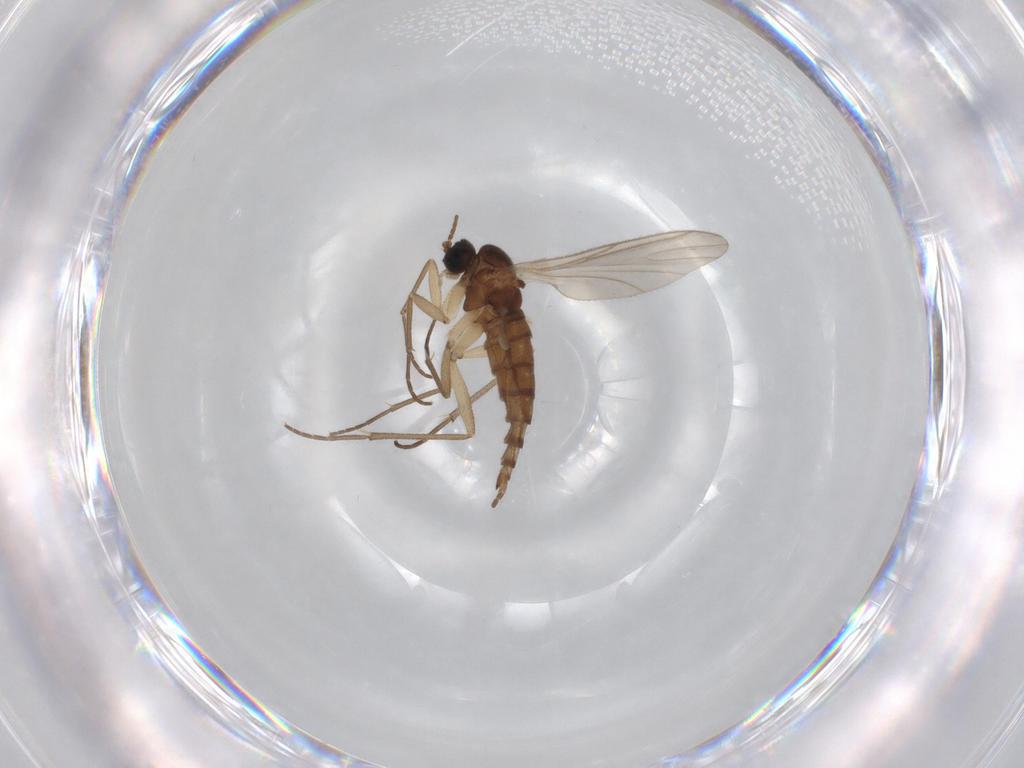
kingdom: Animalia
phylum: Arthropoda
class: Insecta
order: Diptera
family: Sciaridae
